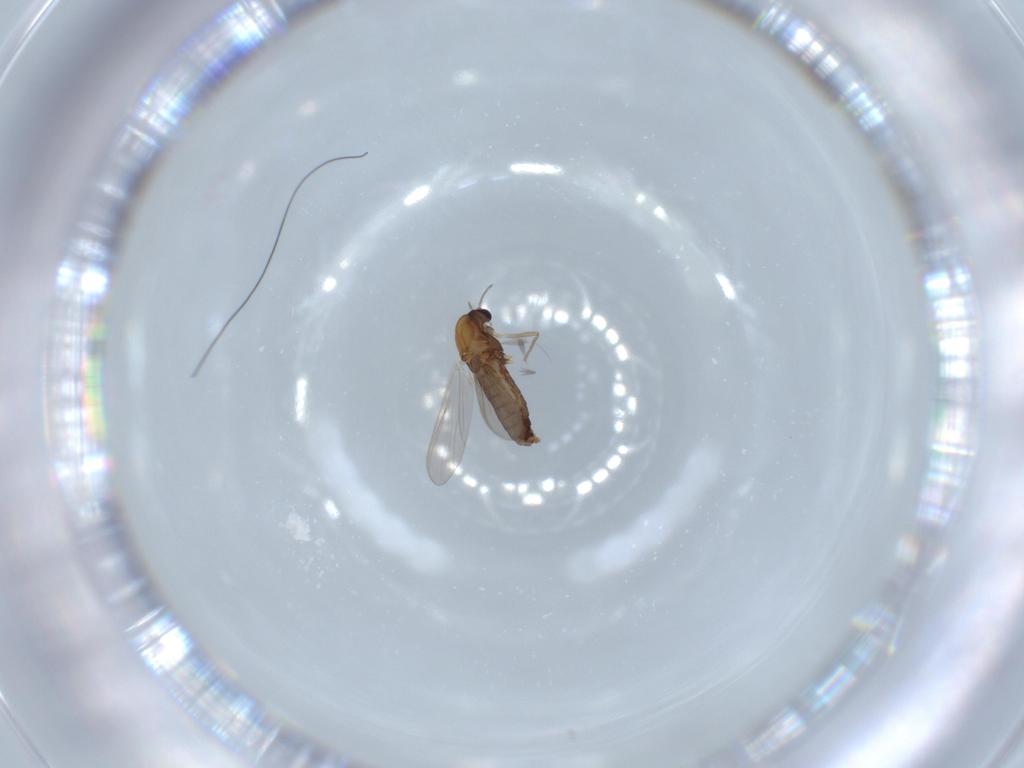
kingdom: Animalia
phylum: Arthropoda
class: Insecta
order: Diptera
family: Chironomidae
